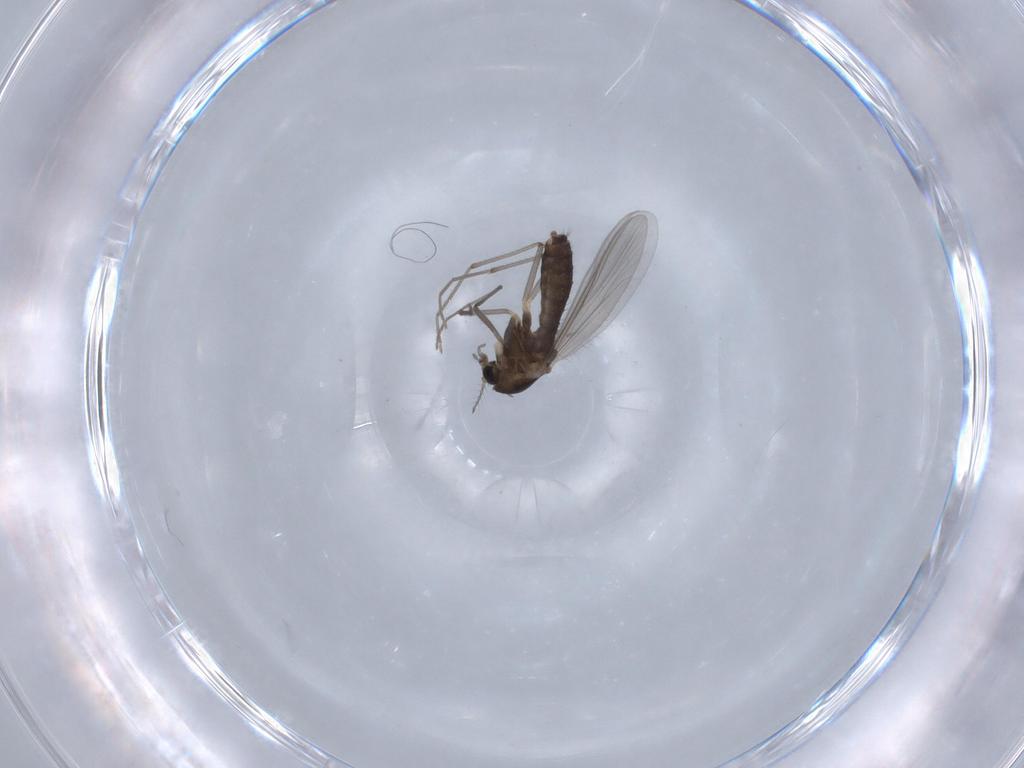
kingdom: Animalia
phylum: Arthropoda
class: Insecta
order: Diptera
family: Chironomidae
